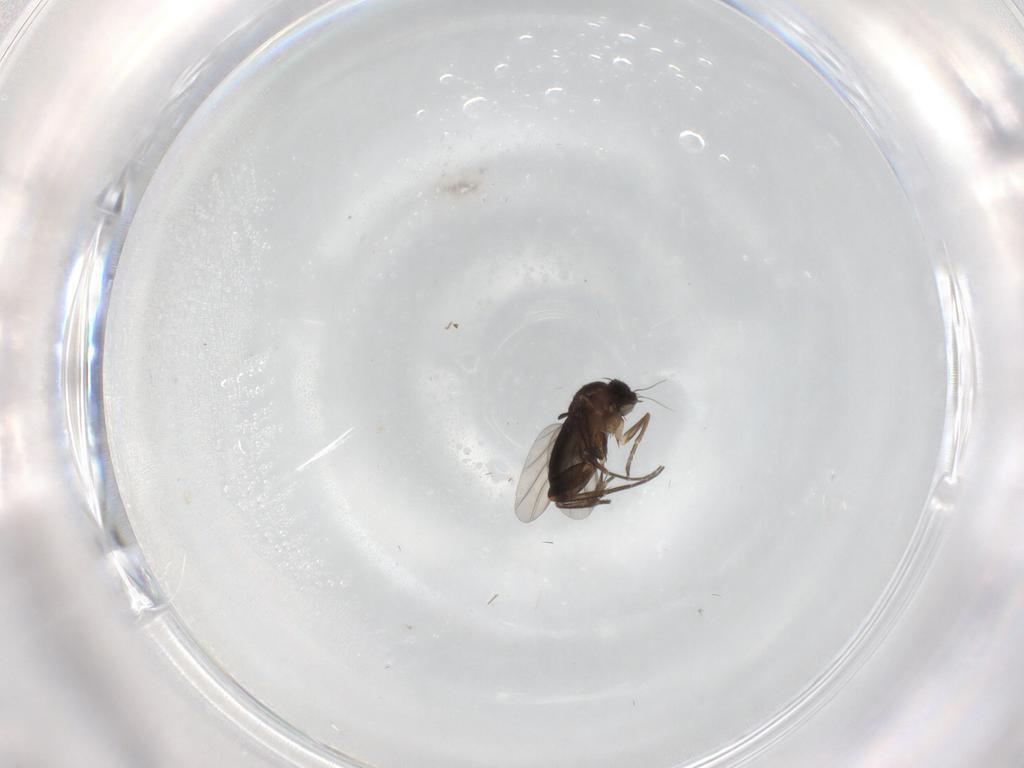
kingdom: Animalia
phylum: Arthropoda
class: Insecta
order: Diptera
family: Phoridae
